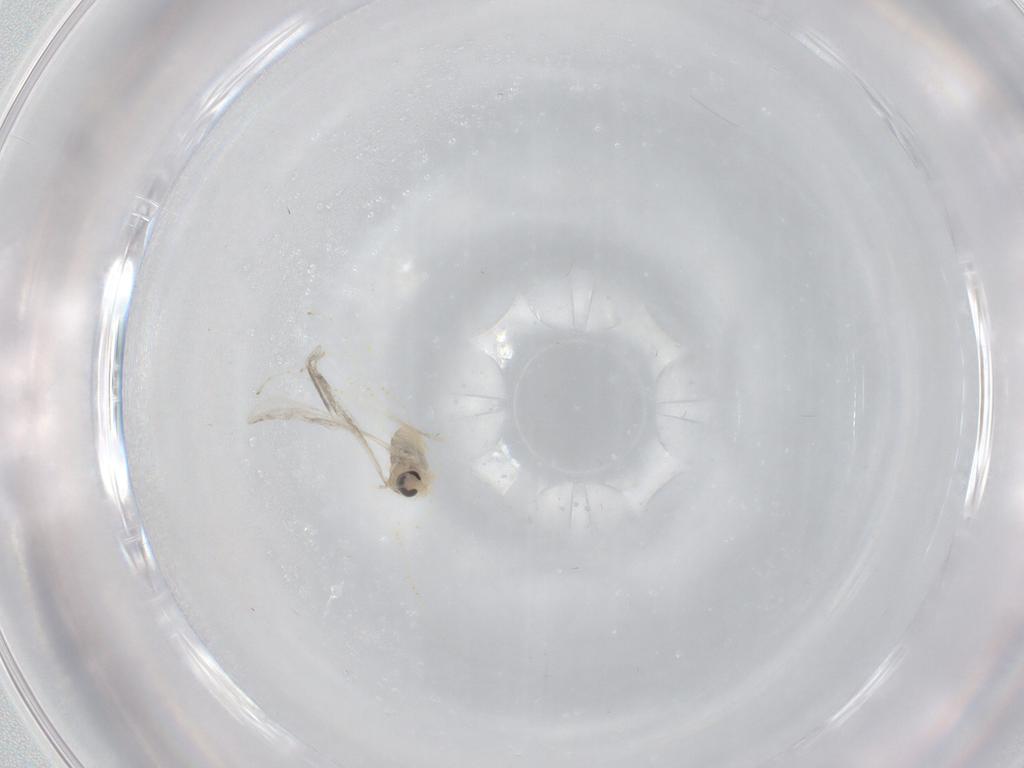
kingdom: Animalia
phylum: Arthropoda
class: Insecta
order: Diptera
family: Cecidomyiidae
